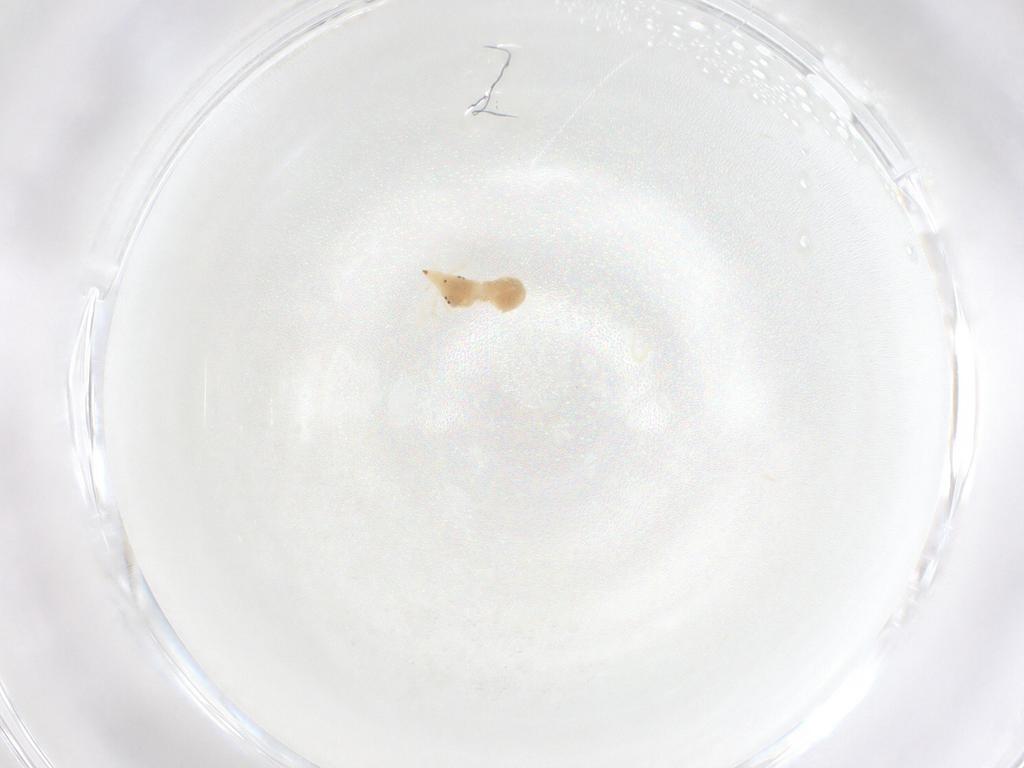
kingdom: Animalia
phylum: Arthropoda
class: Arachnida
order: Trombidiformes
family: Bdellidae
